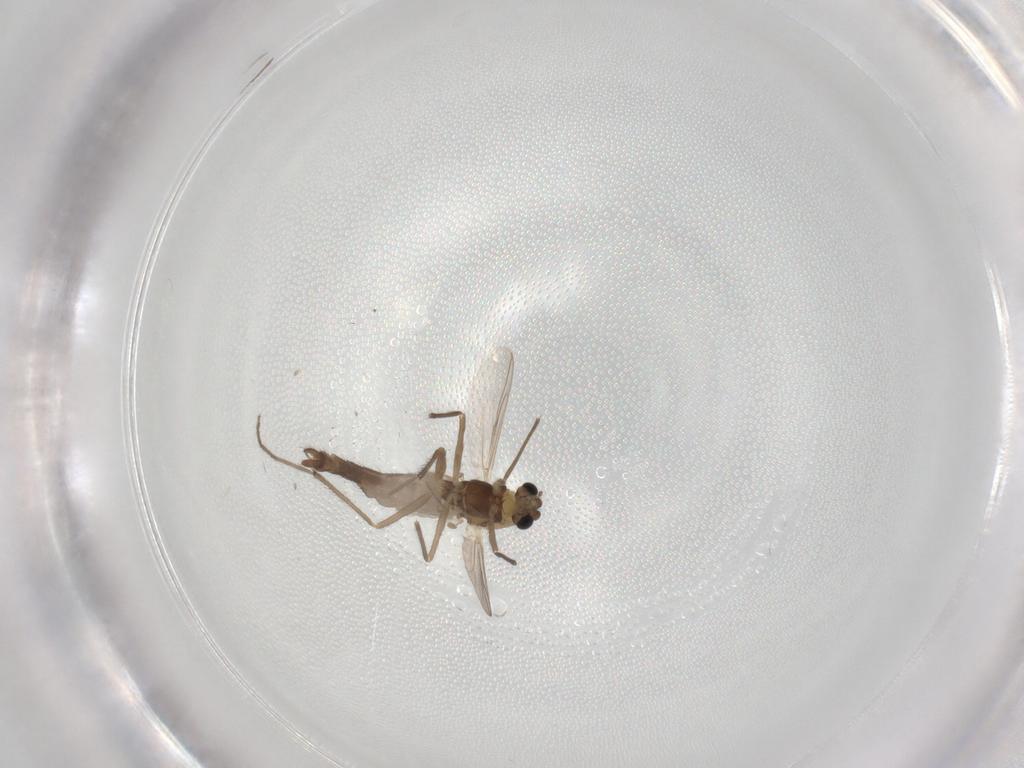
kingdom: Animalia
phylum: Arthropoda
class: Insecta
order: Diptera
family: Chironomidae
